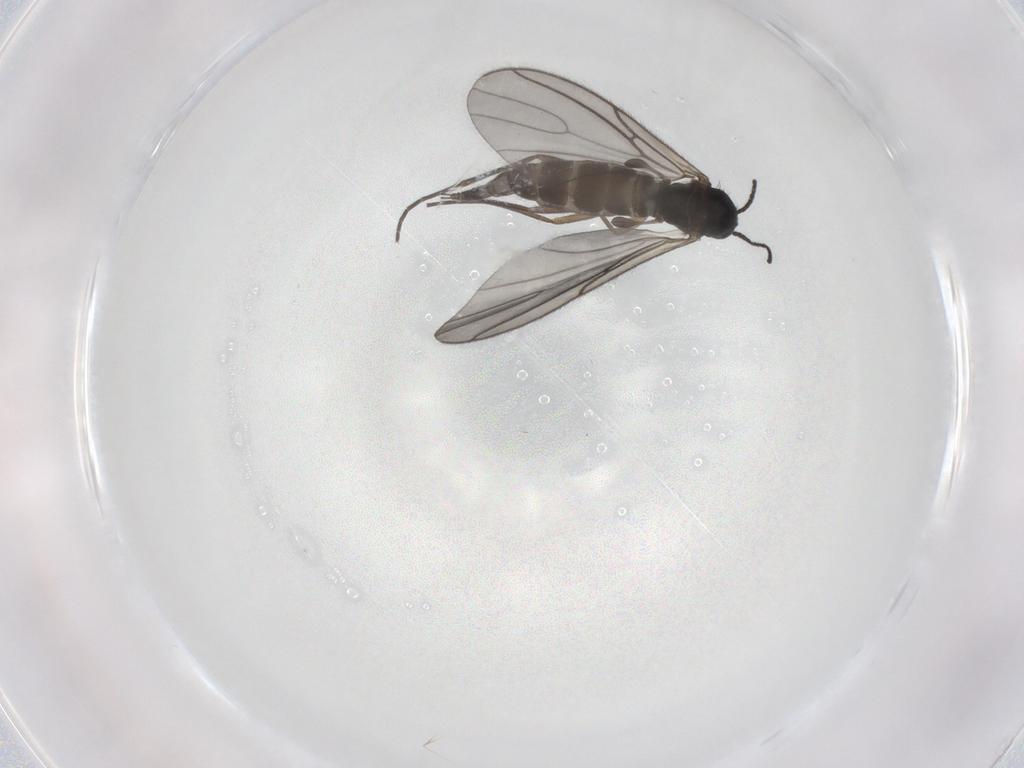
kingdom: Animalia
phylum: Arthropoda
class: Insecta
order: Diptera
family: Sciaridae
